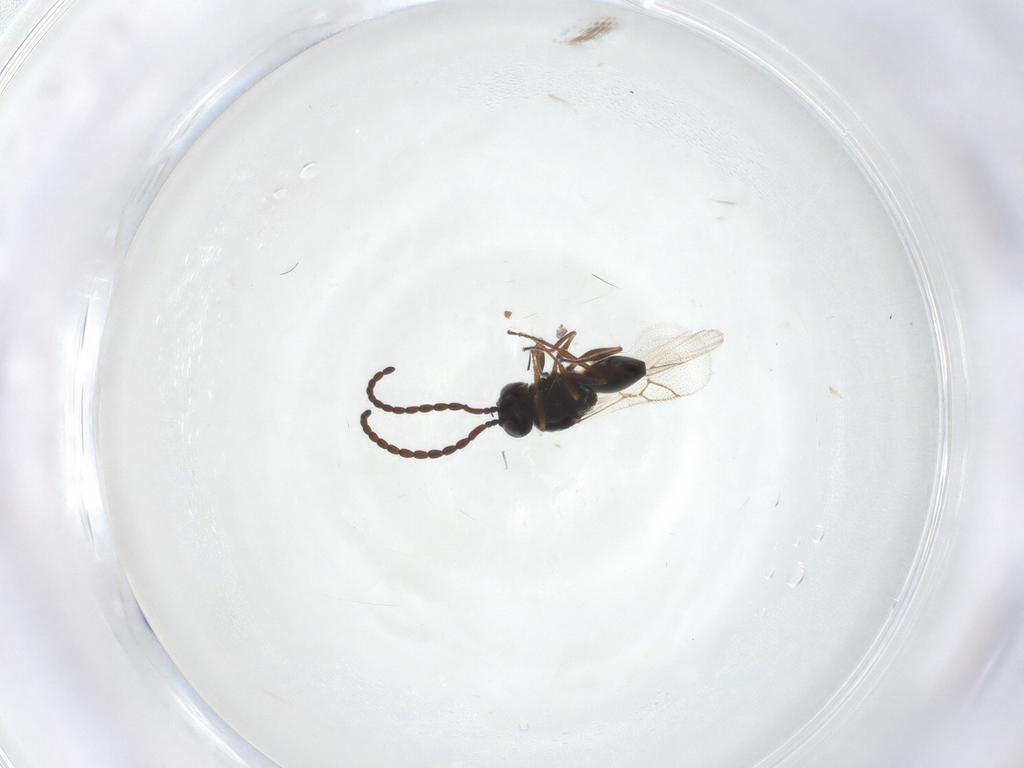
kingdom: Animalia
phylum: Arthropoda
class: Insecta
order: Hymenoptera
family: Figitidae
